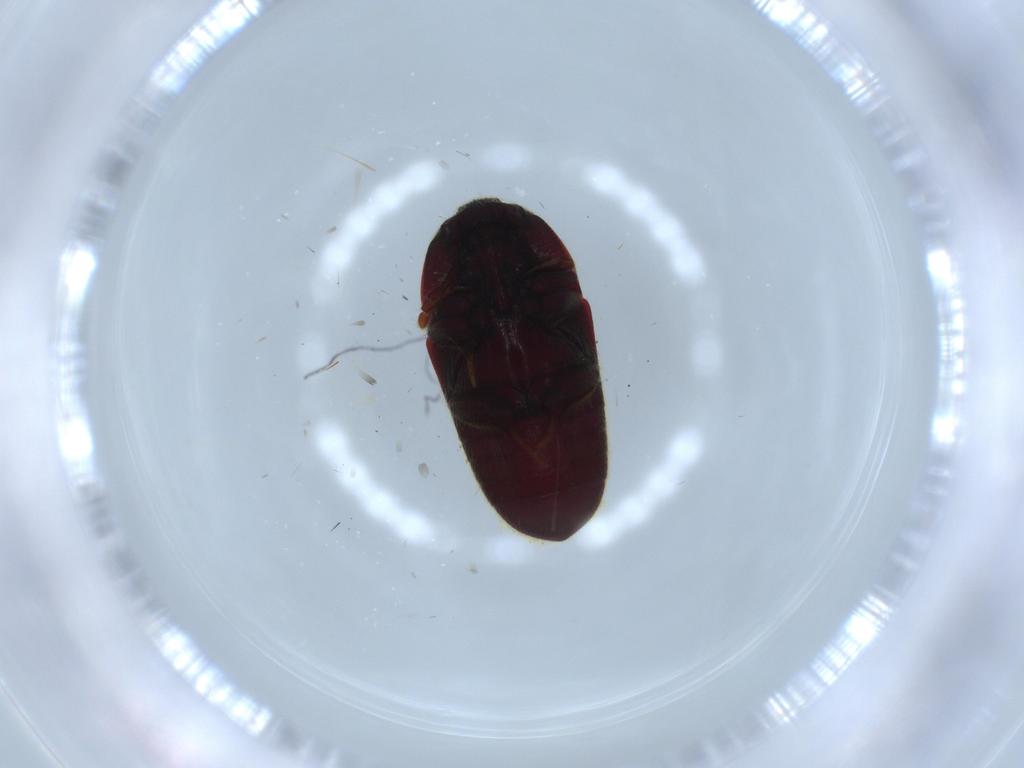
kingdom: Animalia
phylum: Arthropoda
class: Insecta
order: Coleoptera
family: Throscidae
